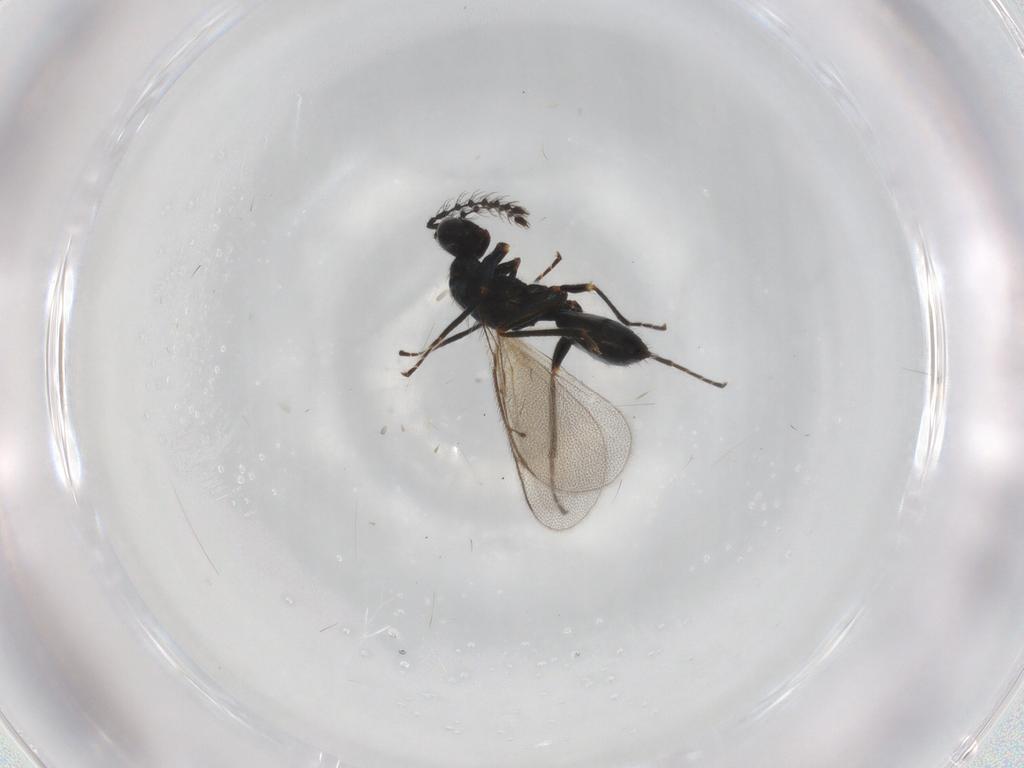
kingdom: Animalia
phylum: Arthropoda
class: Insecta
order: Hymenoptera
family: Eulophidae
